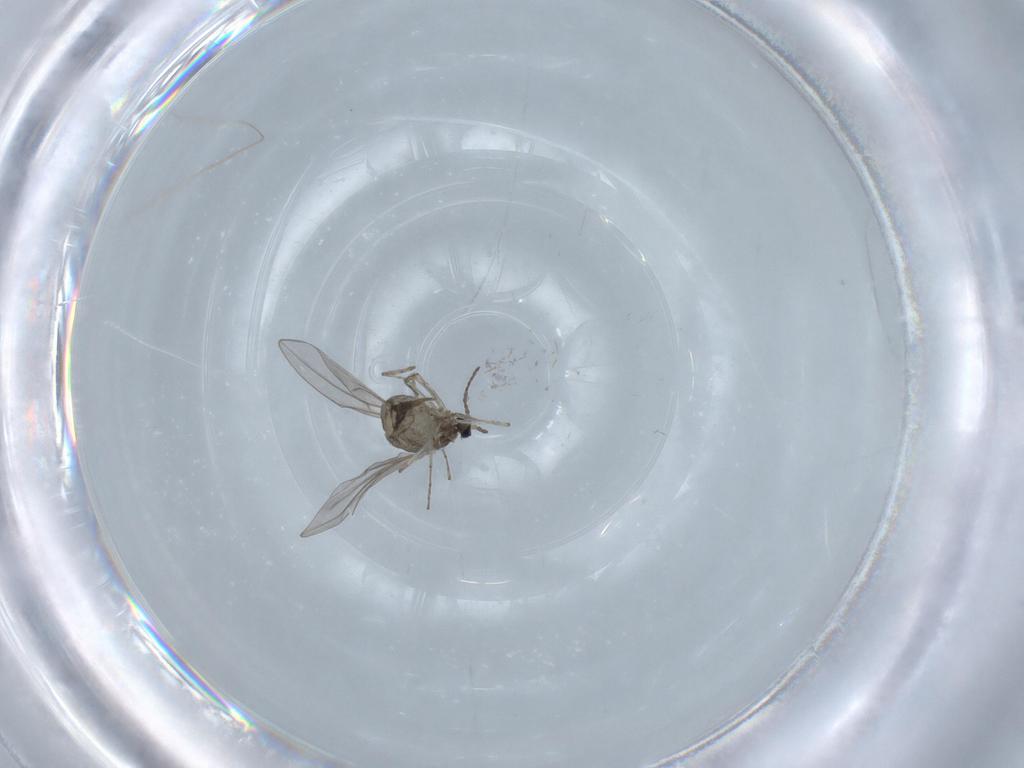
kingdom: Animalia
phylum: Arthropoda
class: Insecta
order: Diptera
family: Cecidomyiidae
